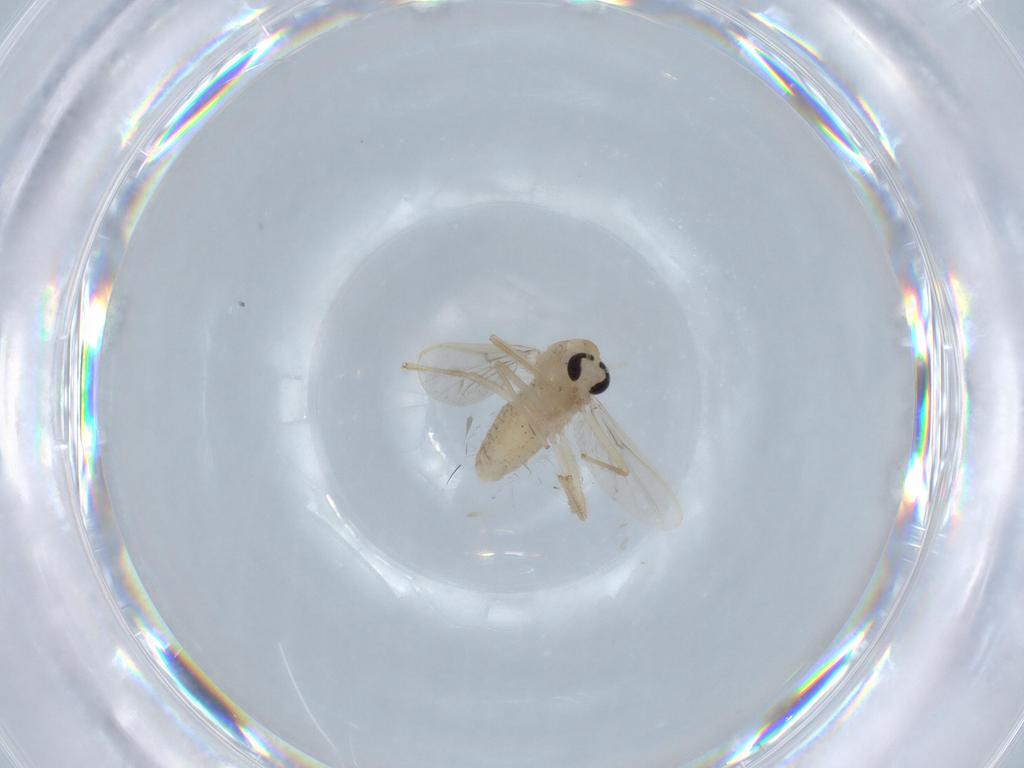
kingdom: Animalia
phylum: Arthropoda
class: Insecta
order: Diptera
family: Chironomidae
